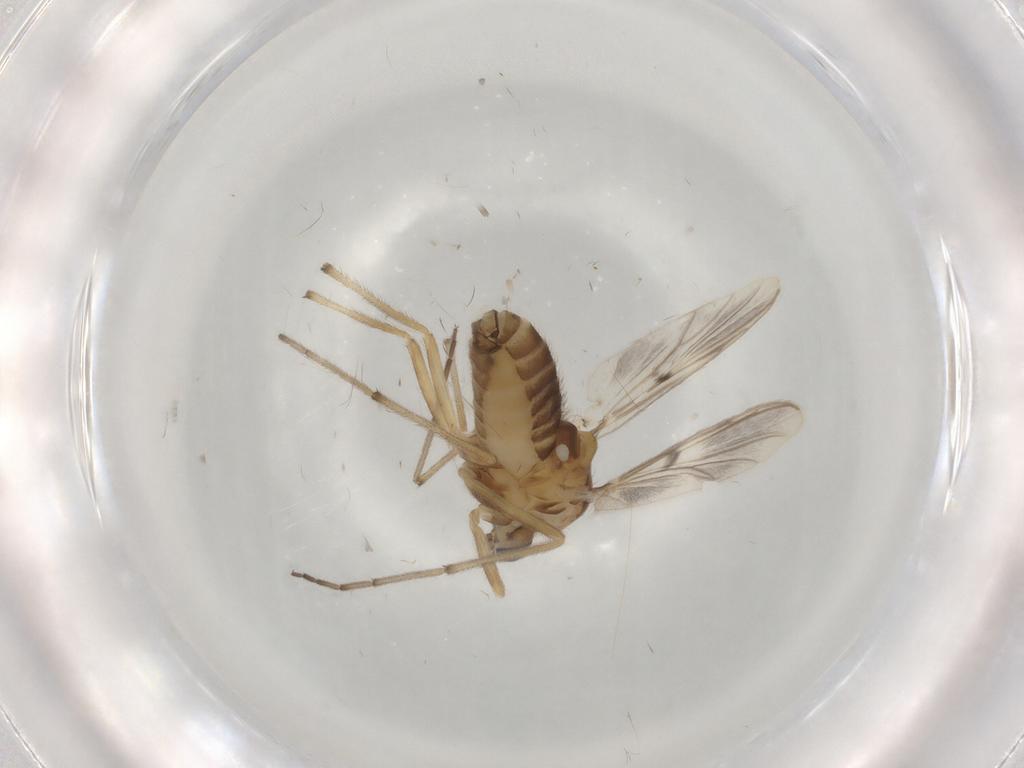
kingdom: Animalia
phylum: Arthropoda
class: Insecta
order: Diptera
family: Chironomidae
